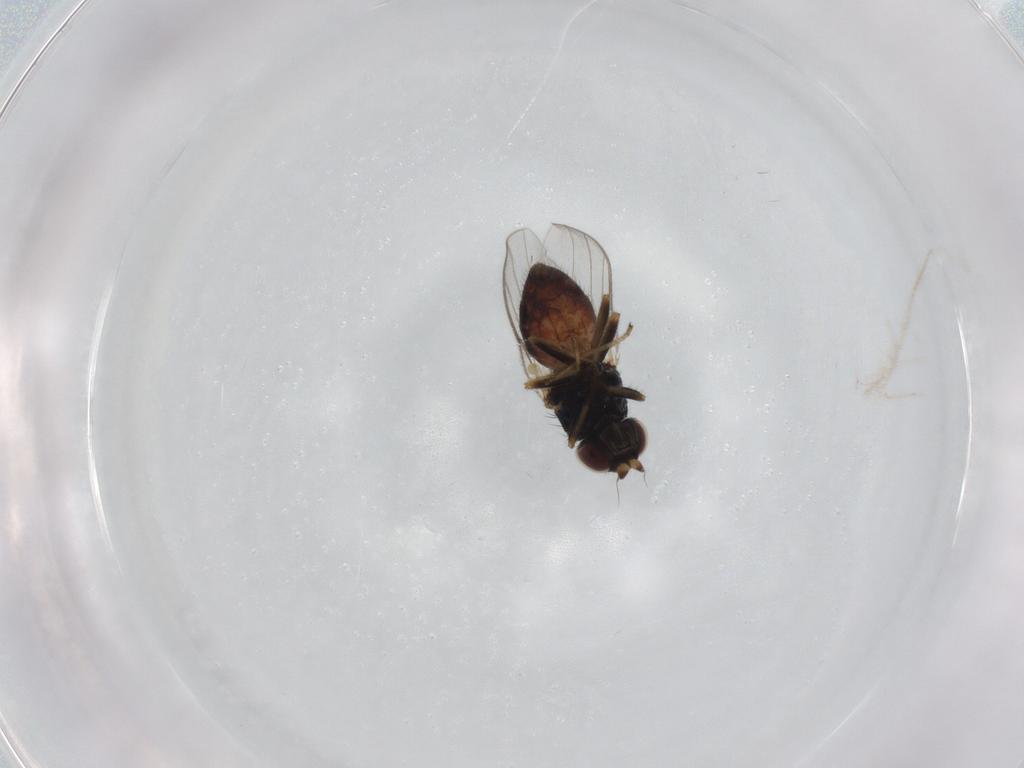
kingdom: Animalia
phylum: Arthropoda
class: Insecta
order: Diptera
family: Chloropidae
